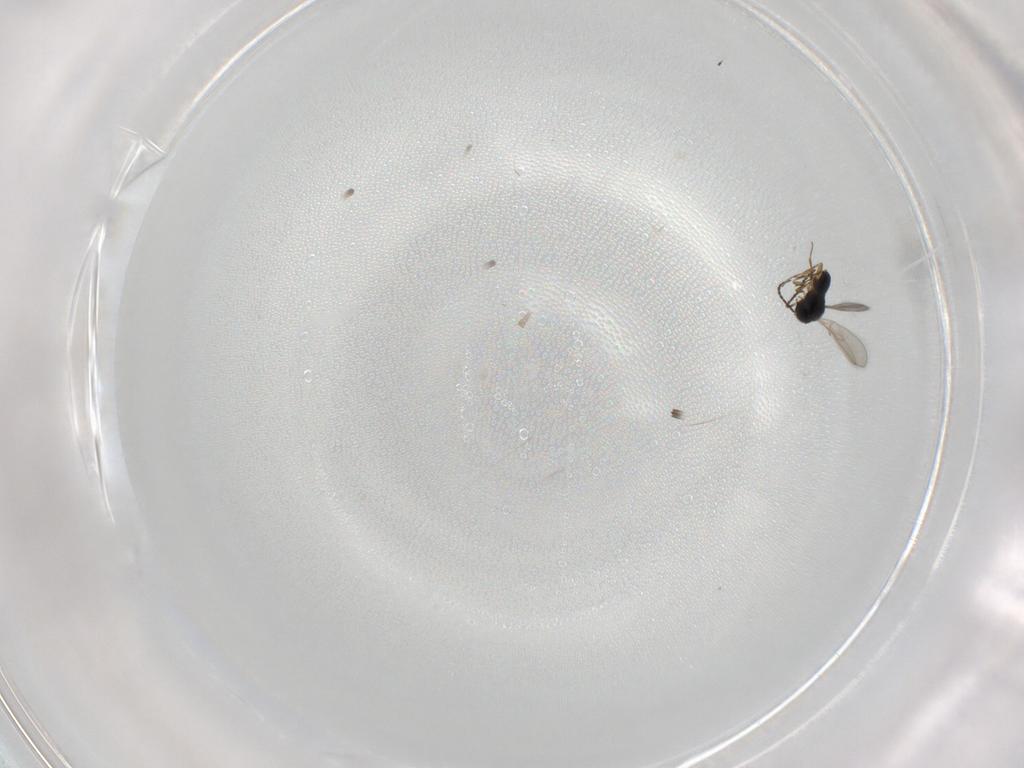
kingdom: Animalia
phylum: Arthropoda
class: Insecta
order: Hymenoptera
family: Scelionidae
